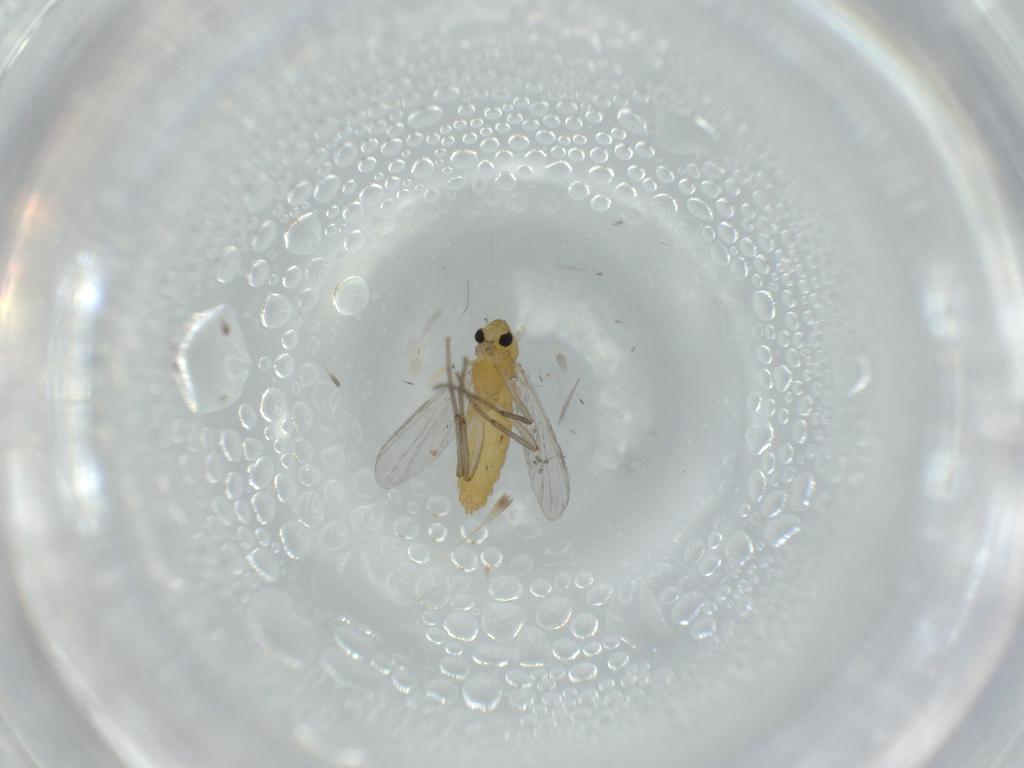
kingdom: Animalia
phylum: Arthropoda
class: Insecta
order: Diptera
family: Chironomidae
